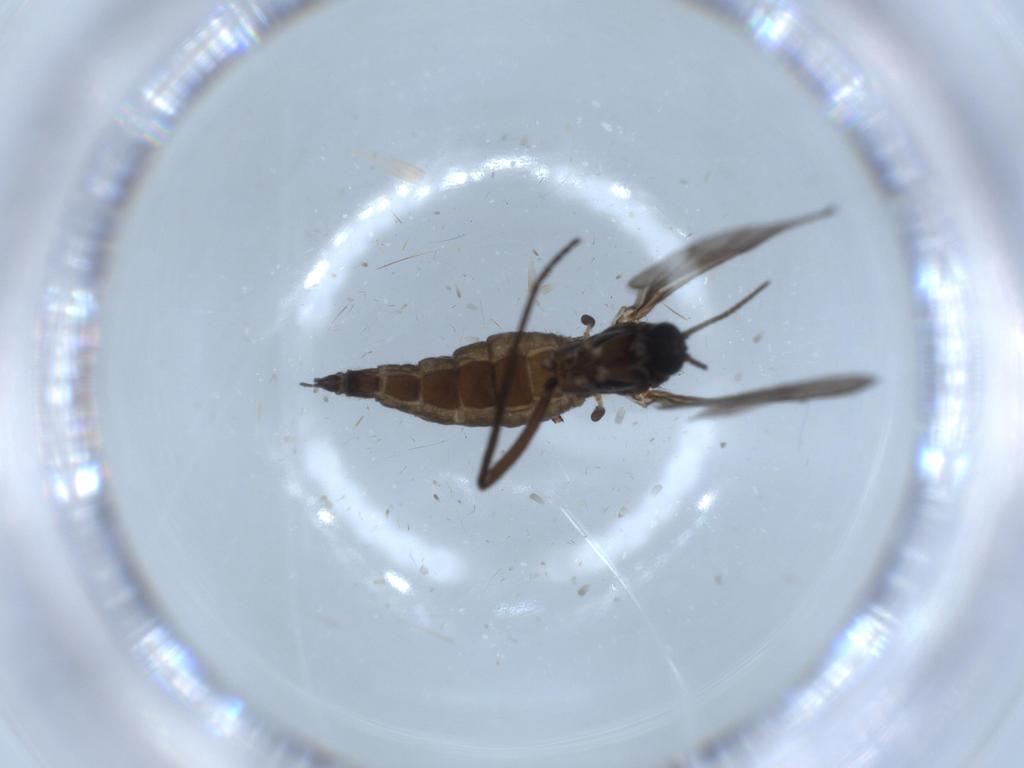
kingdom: Animalia
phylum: Arthropoda
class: Insecta
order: Diptera
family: Sciaridae
